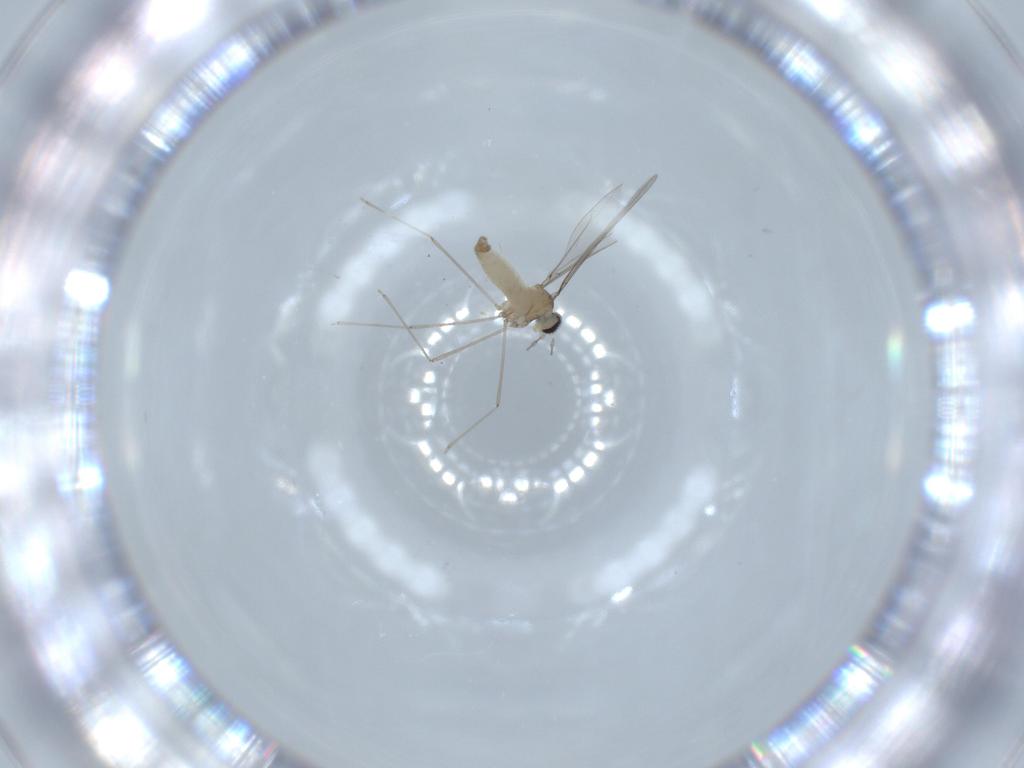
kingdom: Animalia
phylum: Arthropoda
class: Insecta
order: Diptera
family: Cecidomyiidae
